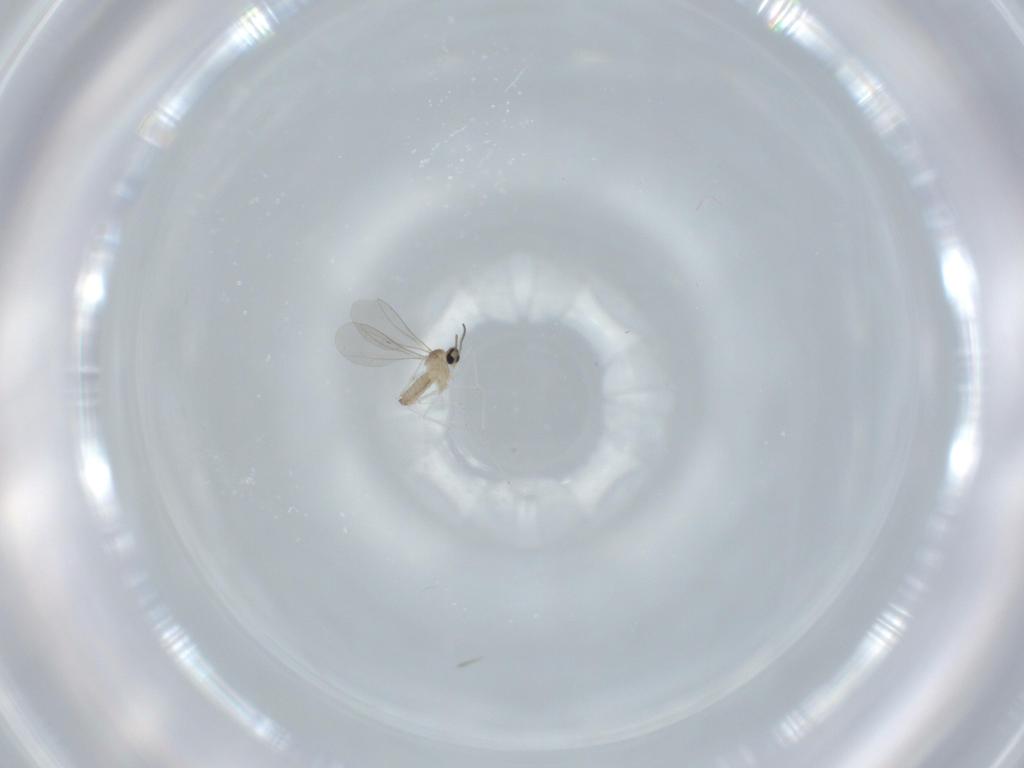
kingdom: Animalia
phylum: Arthropoda
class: Insecta
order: Diptera
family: Cecidomyiidae
